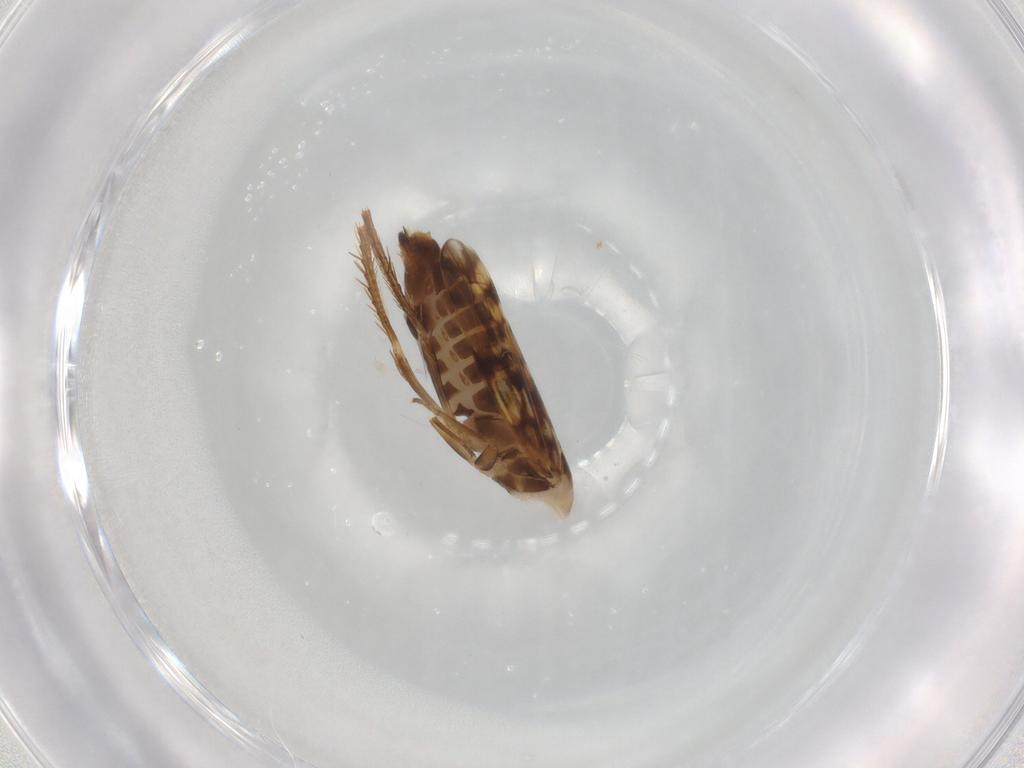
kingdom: Animalia
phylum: Arthropoda
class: Insecta
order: Hemiptera
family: Cicadellidae
